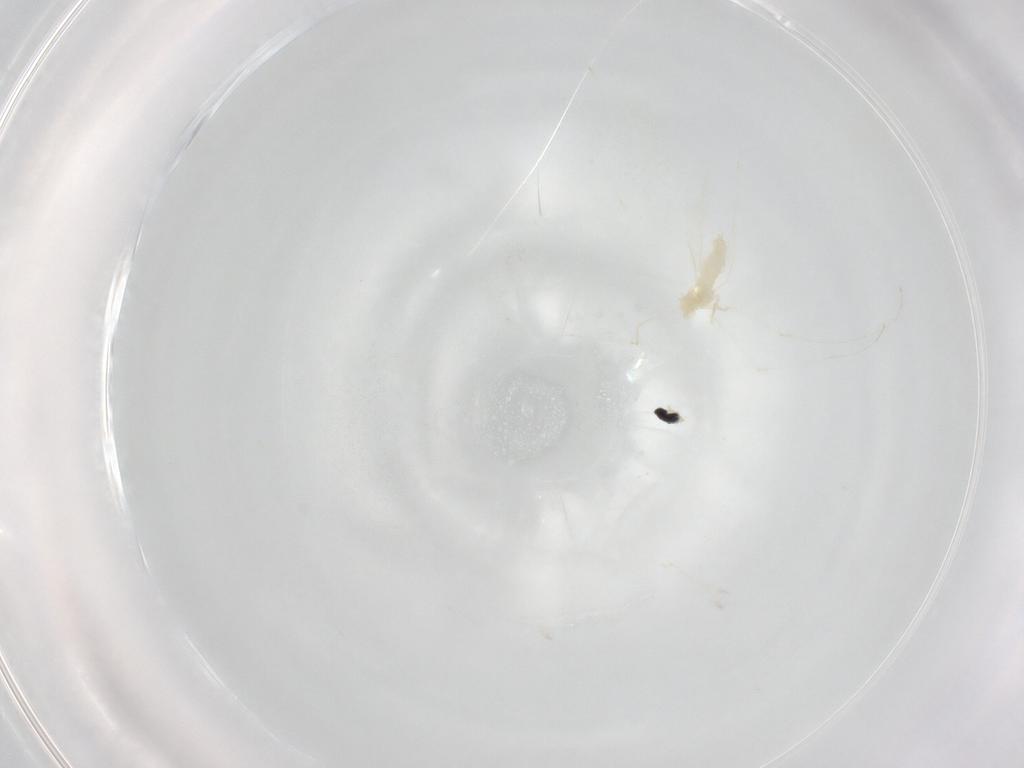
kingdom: Animalia
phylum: Arthropoda
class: Insecta
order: Diptera
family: Cecidomyiidae
